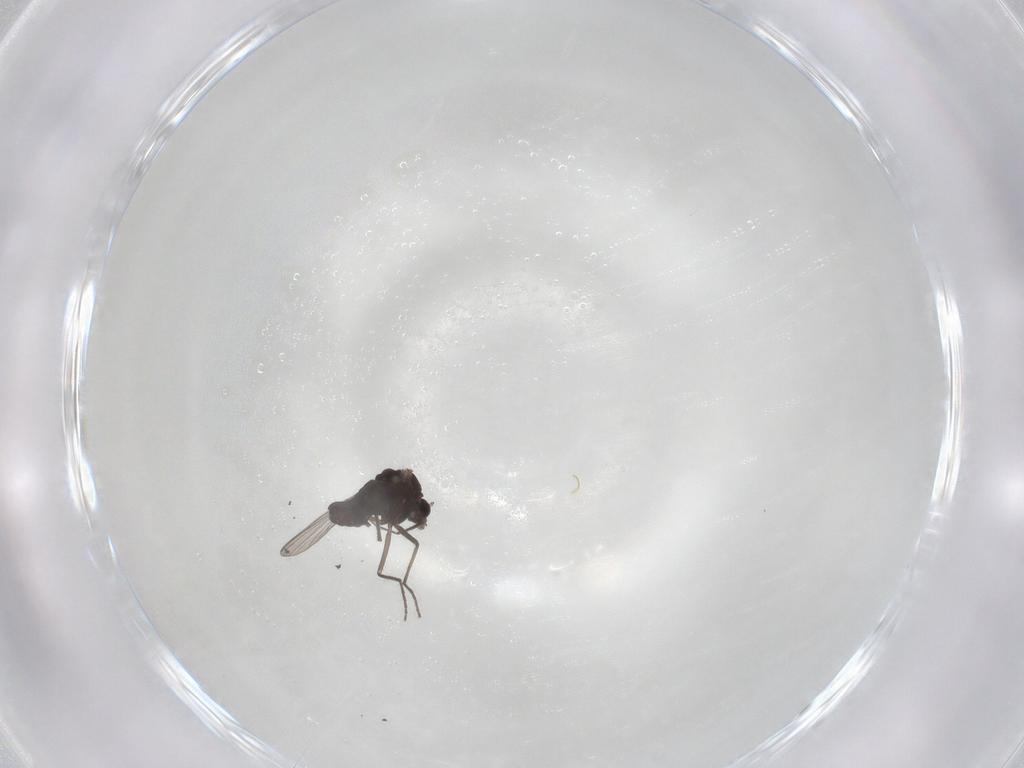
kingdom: Animalia
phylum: Arthropoda
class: Insecta
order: Diptera
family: Chironomidae
